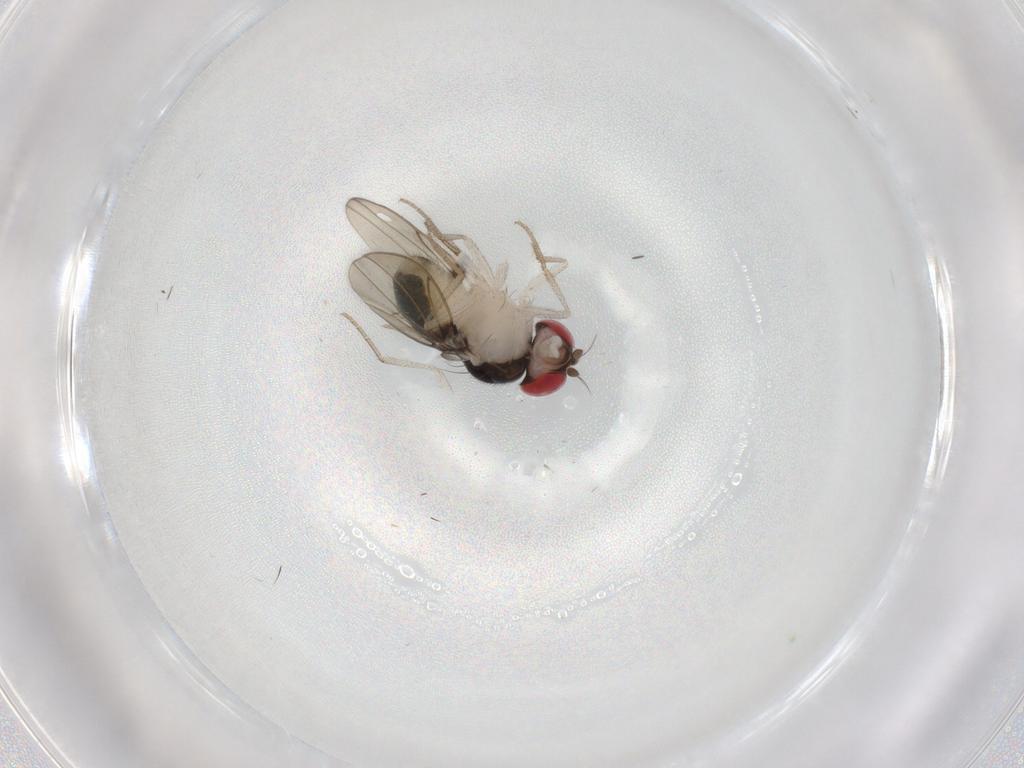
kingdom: Animalia
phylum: Arthropoda
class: Insecta
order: Diptera
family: Drosophilidae
